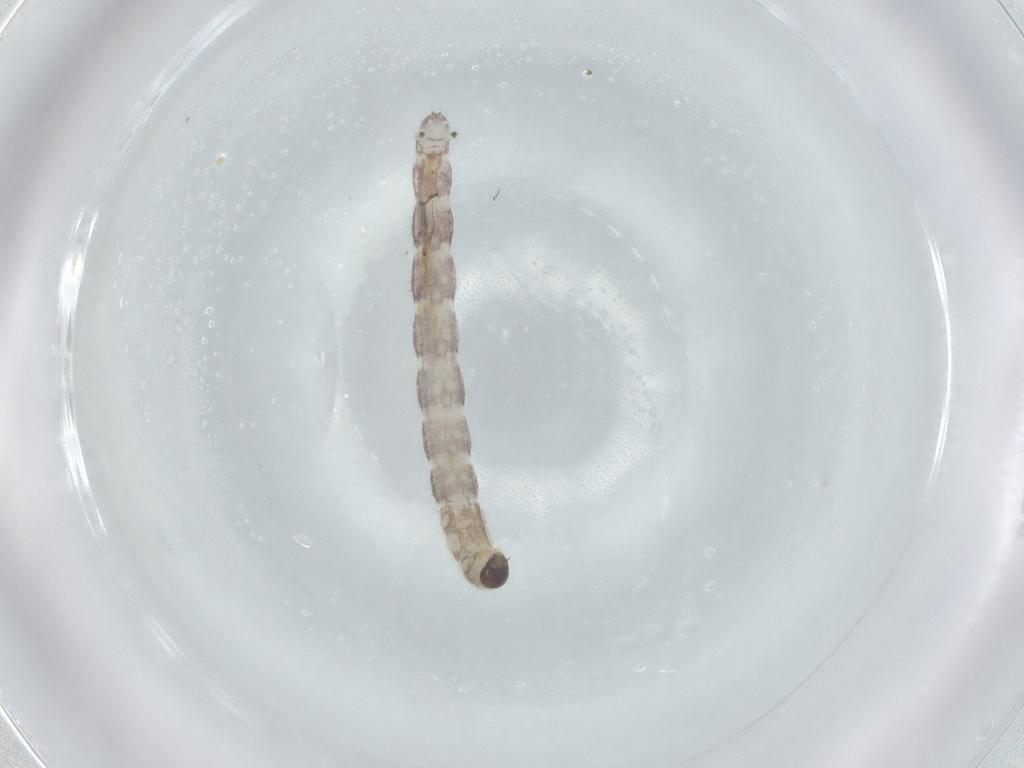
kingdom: Animalia
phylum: Arthropoda
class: Insecta
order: Diptera
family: Chironomidae
